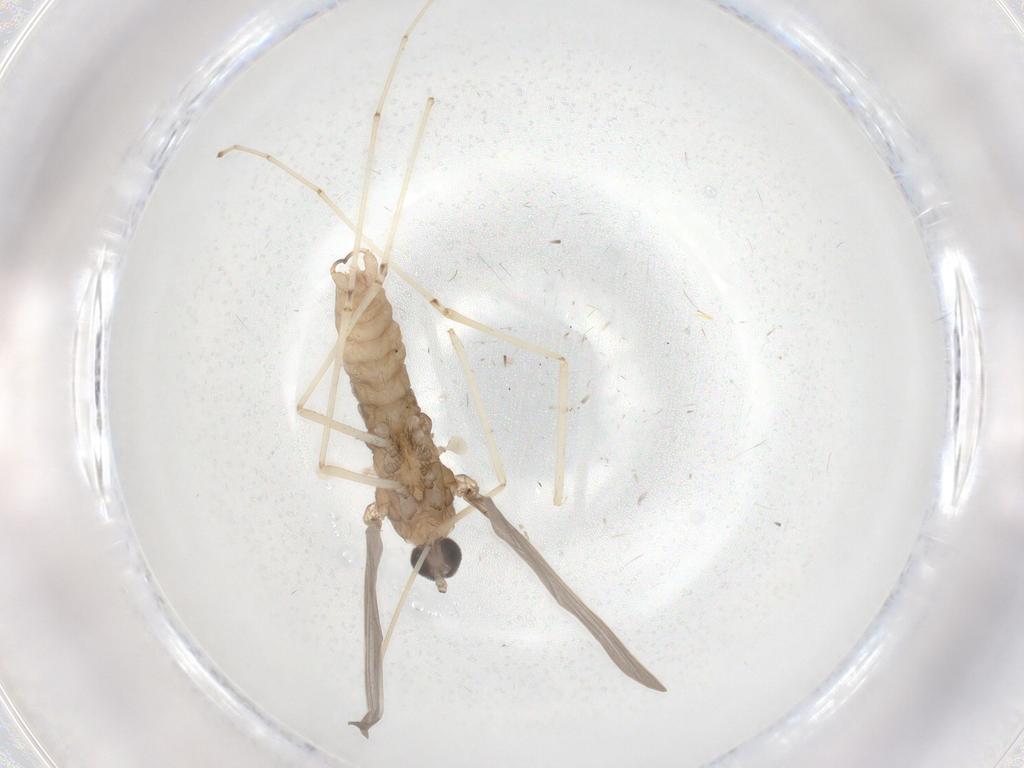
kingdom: Animalia
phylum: Arthropoda
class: Insecta
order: Diptera
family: Cecidomyiidae
